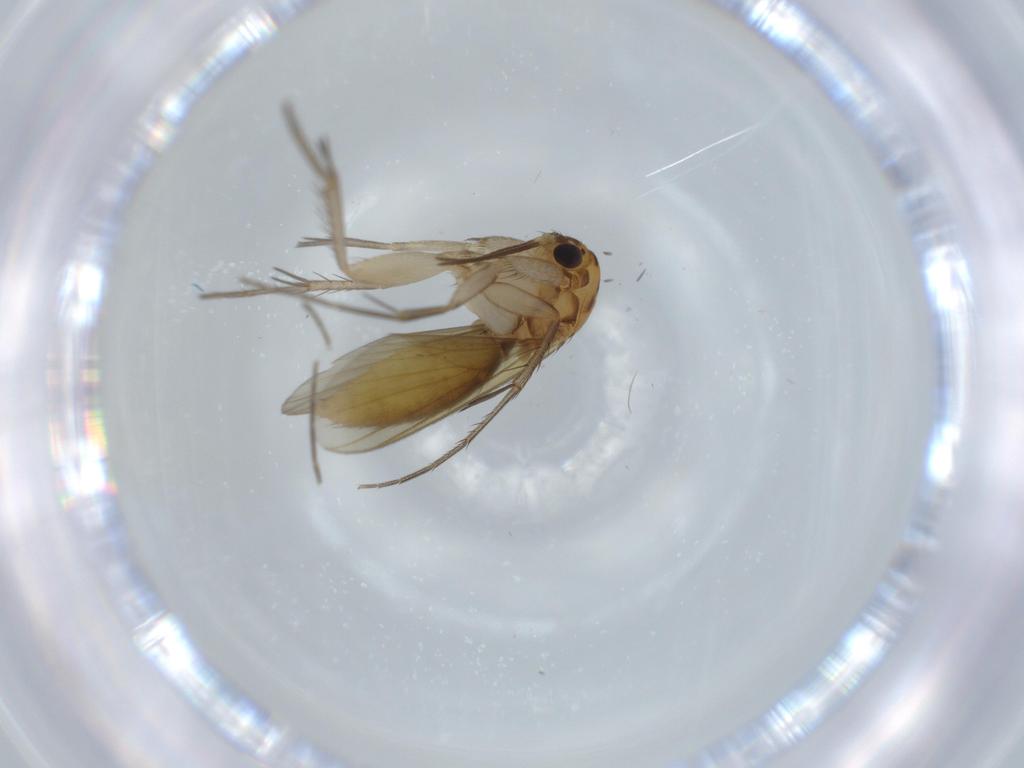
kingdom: Animalia
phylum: Arthropoda
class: Insecta
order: Diptera
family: Mycetophilidae
